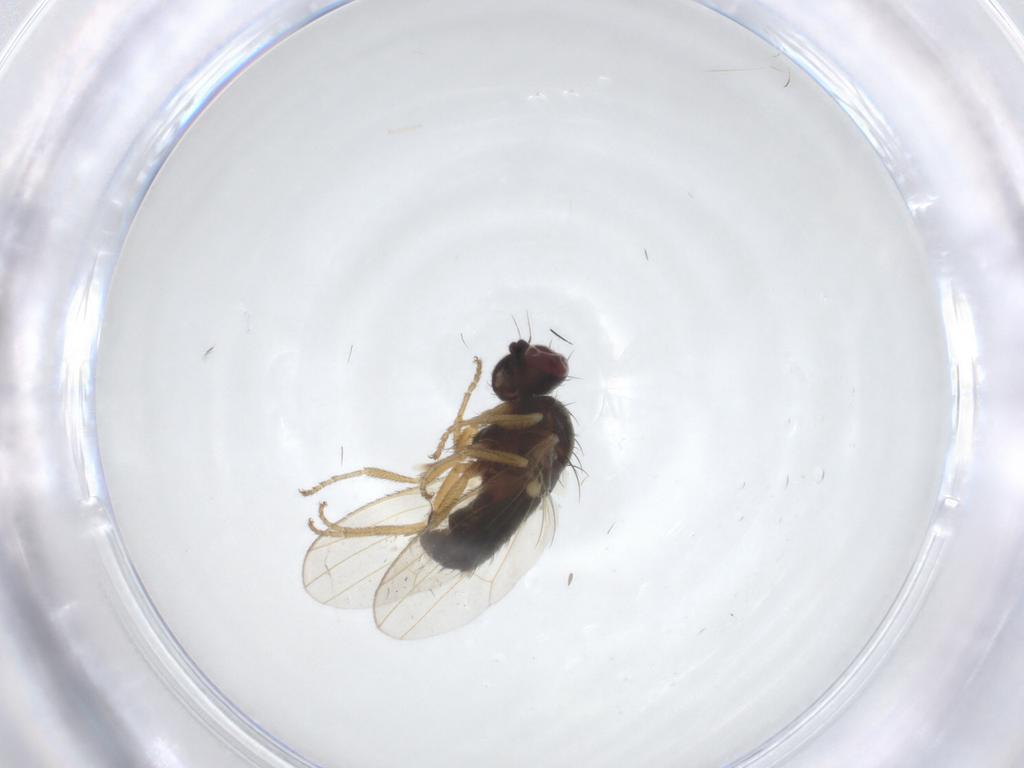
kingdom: Animalia
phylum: Arthropoda
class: Insecta
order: Diptera
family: Heleomyzidae
